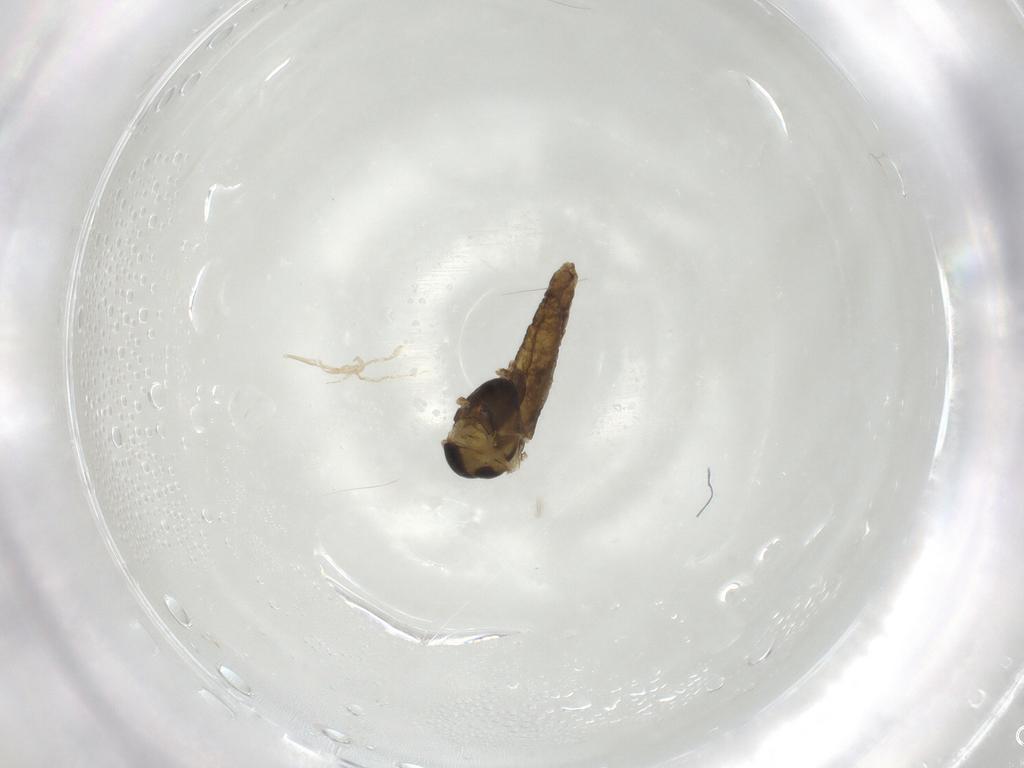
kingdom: Animalia
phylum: Arthropoda
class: Insecta
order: Diptera
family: Chironomidae
